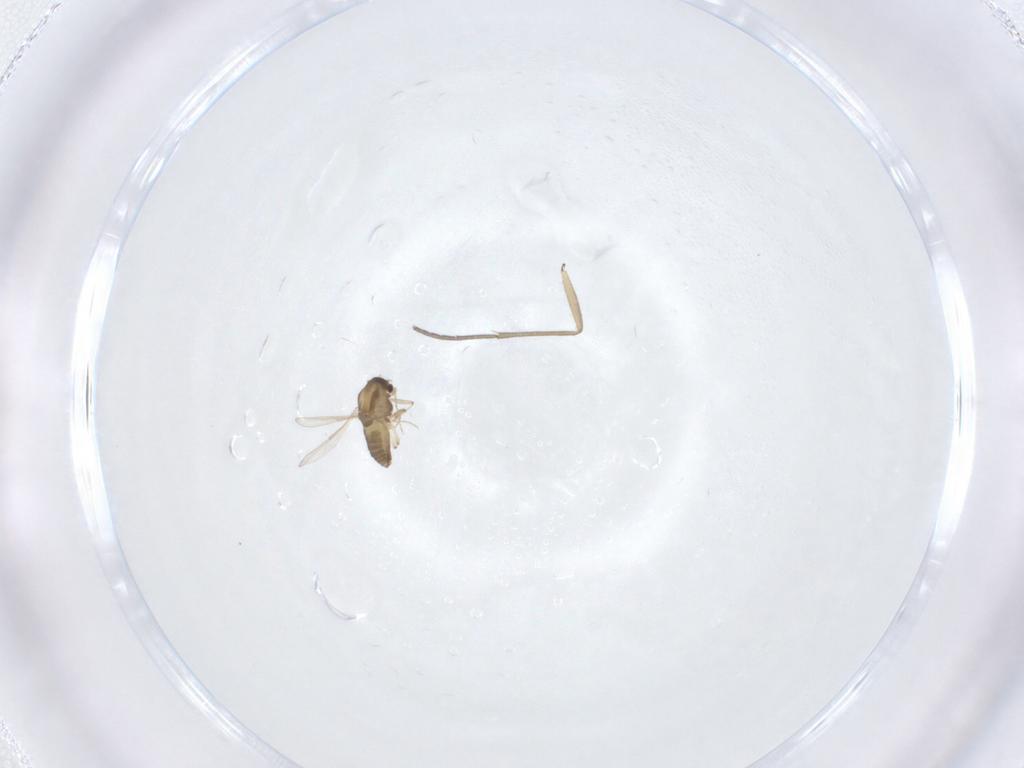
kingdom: Animalia
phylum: Arthropoda
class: Insecta
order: Diptera
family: Chironomidae
